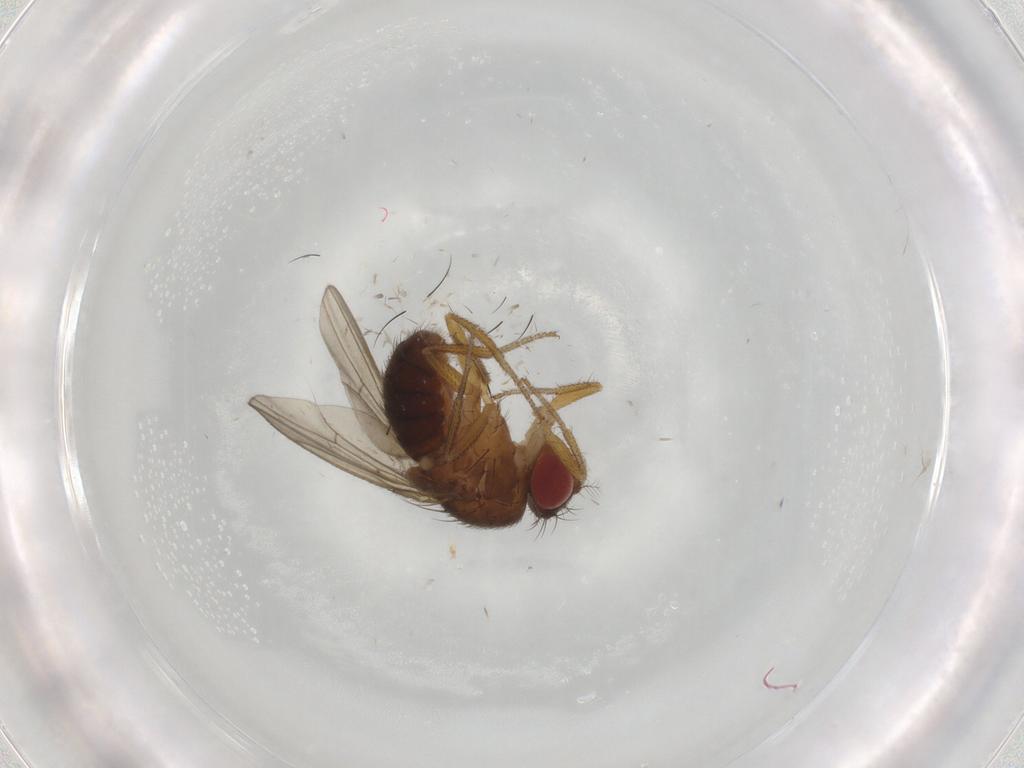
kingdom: Animalia
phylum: Arthropoda
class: Insecta
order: Diptera
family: Drosophilidae
